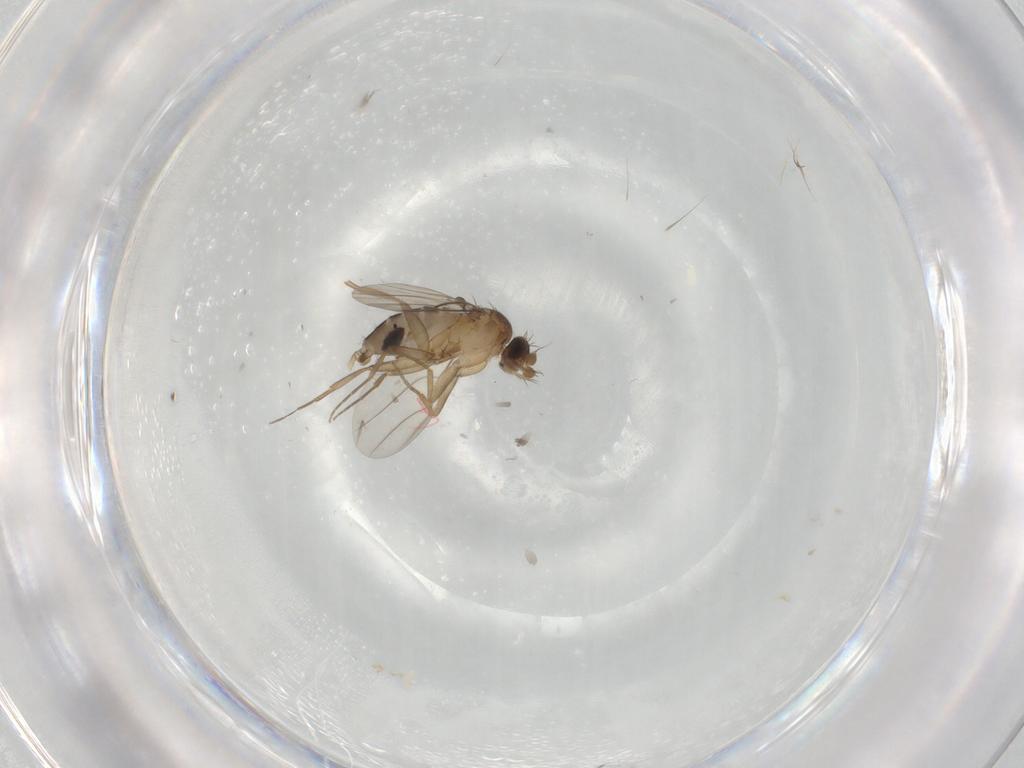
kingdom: Animalia
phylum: Arthropoda
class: Insecta
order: Diptera
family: Phoridae
